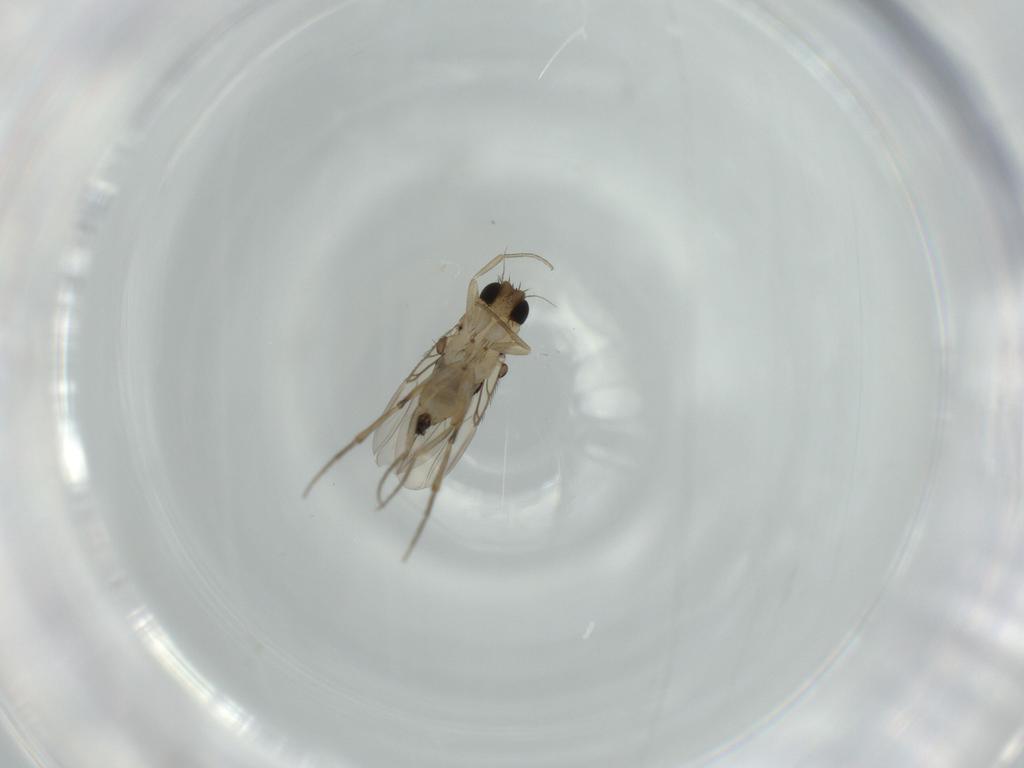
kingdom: Animalia
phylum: Arthropoda
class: Insecta
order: Diptera
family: Phoridae
